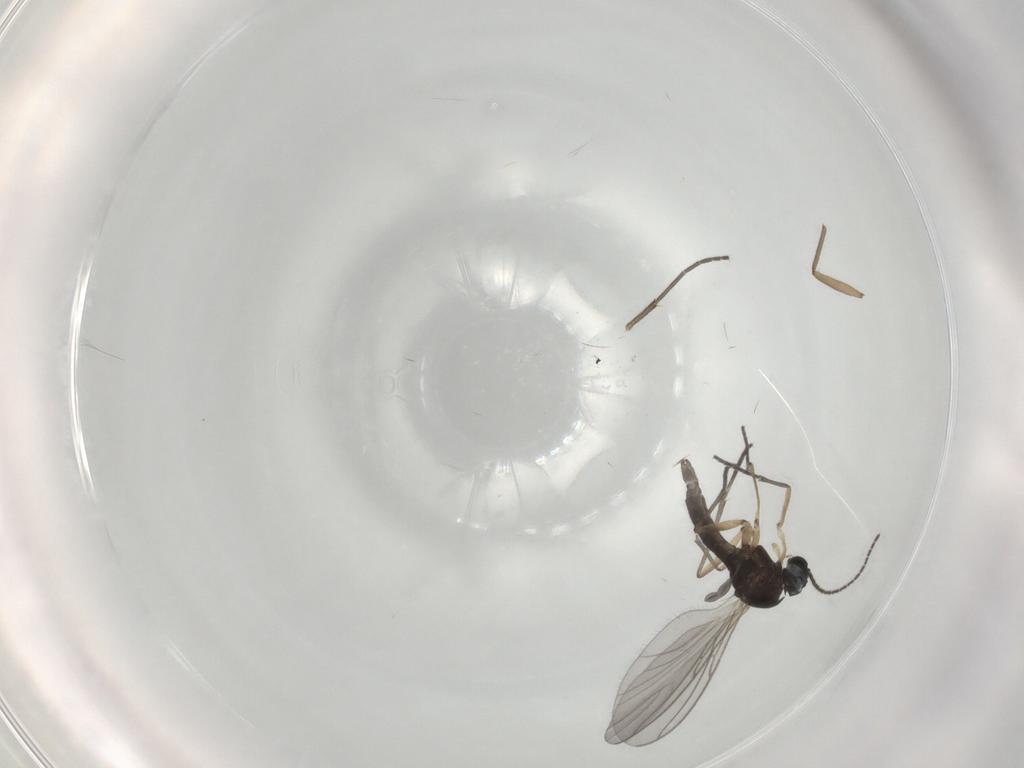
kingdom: Animalia
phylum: Arthropoda
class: Insecta
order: Diptera
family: Sciaridae
